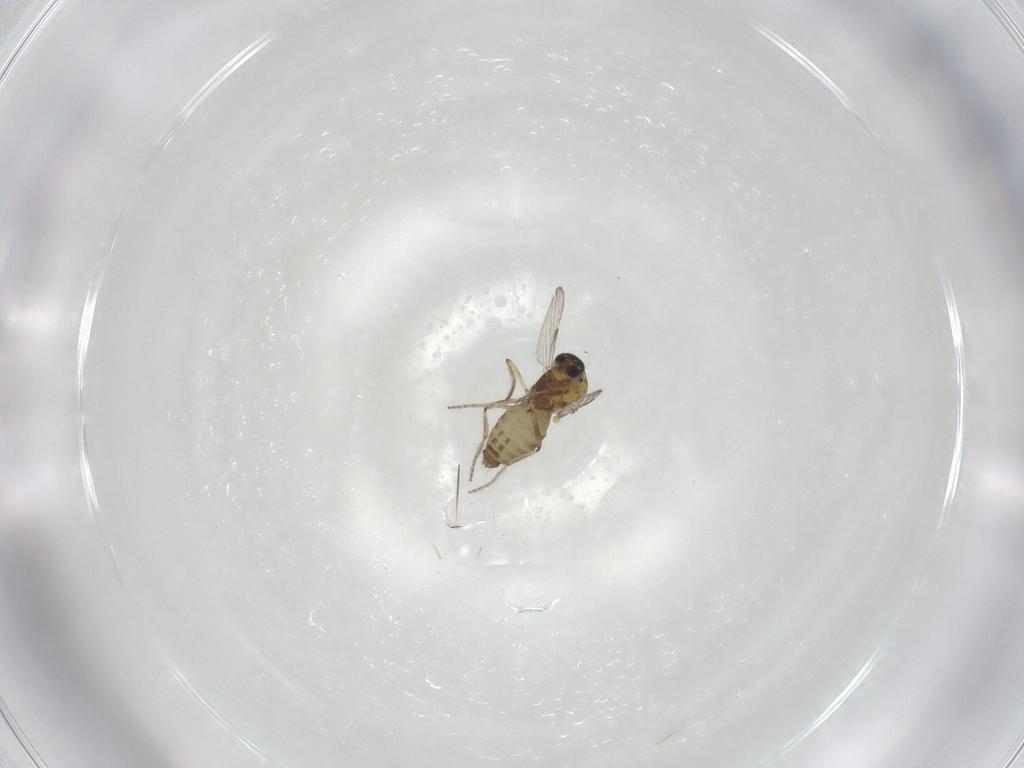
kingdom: Animalia
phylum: Arthropoda
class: Insecta
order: Diptera
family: Ceratopogonidae
